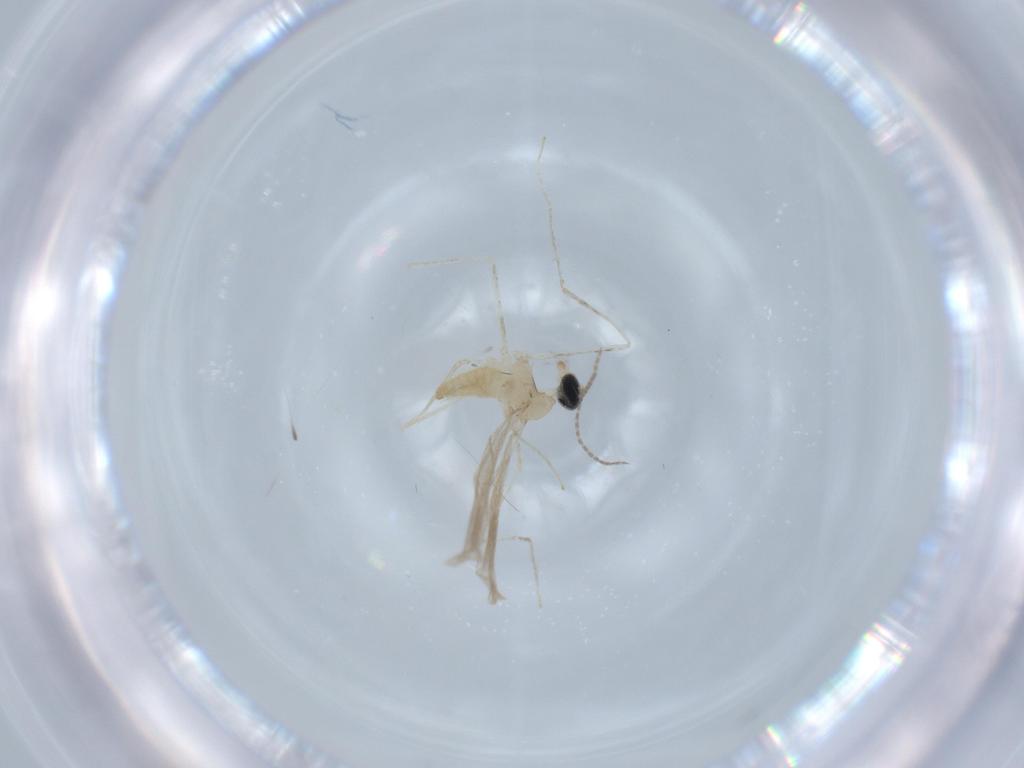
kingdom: Animalia
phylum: Arthropoda
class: Insecta
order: Diptera
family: Cecidomyiidae
